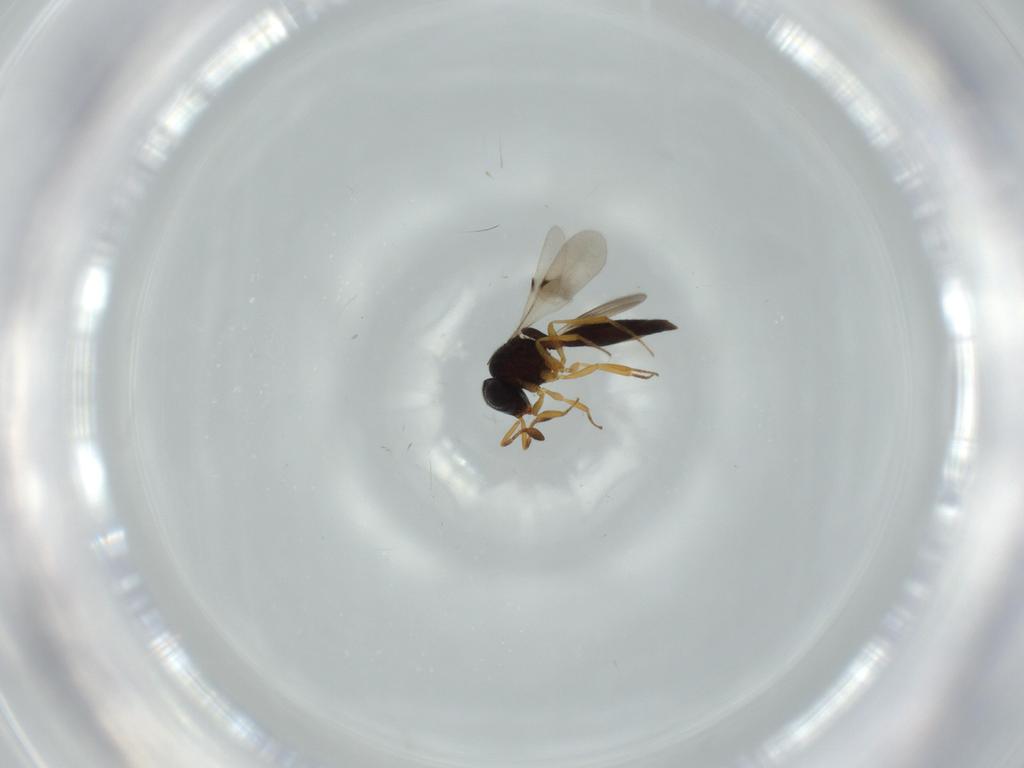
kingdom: Animalia
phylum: Arthropoda
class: Insecta
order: Hymenoptera
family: Scelionidae
